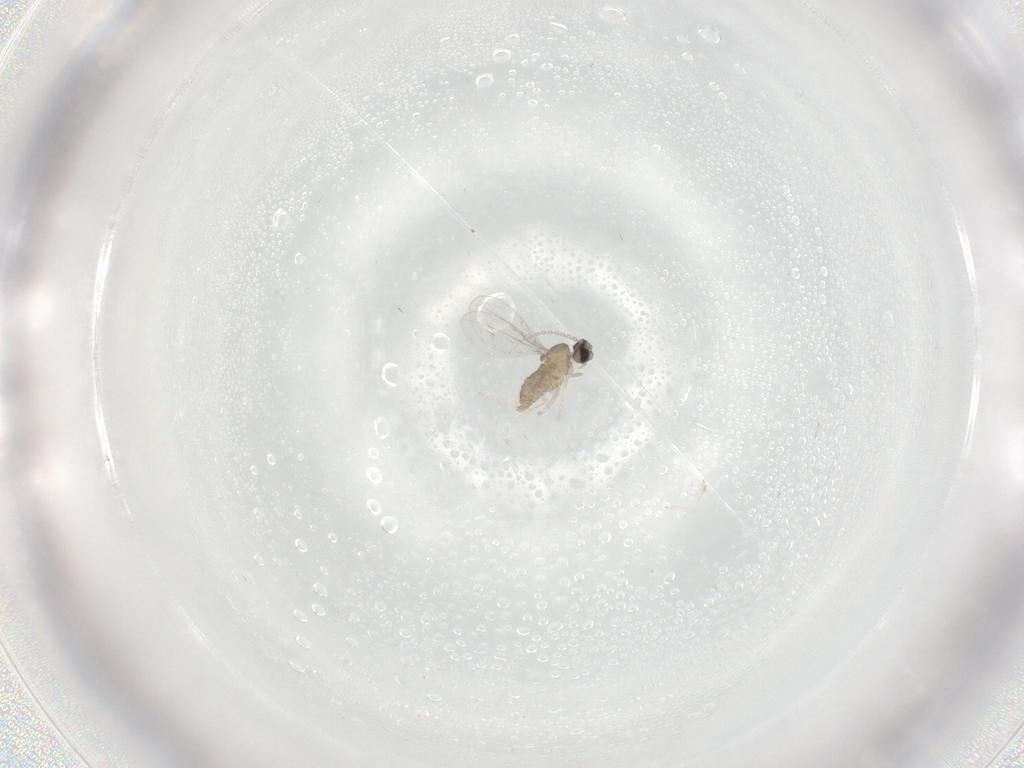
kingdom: Animalia
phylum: Arthropoda
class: Insecta
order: Diptera
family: Cecidomyiidae
